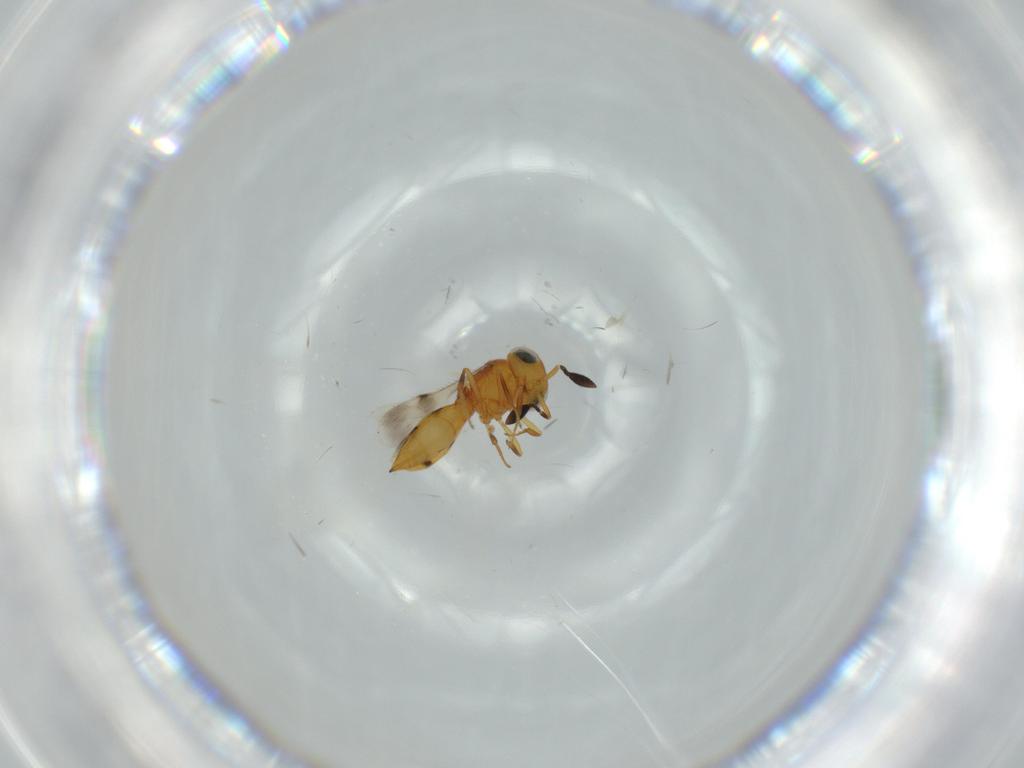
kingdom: Animalia
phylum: Arthropoda
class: Insecta
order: Hymenoptera
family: Scelionidae
